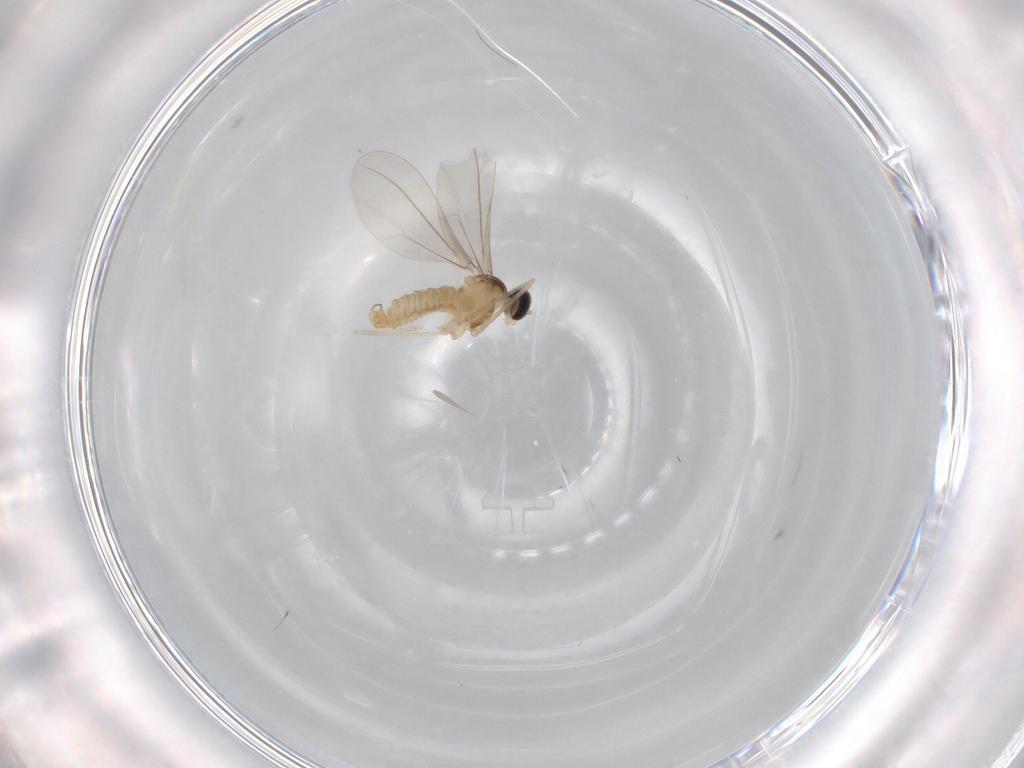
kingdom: Animalia
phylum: Arthropoda
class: Insecta
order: Diptera
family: Cecidomyiidae
